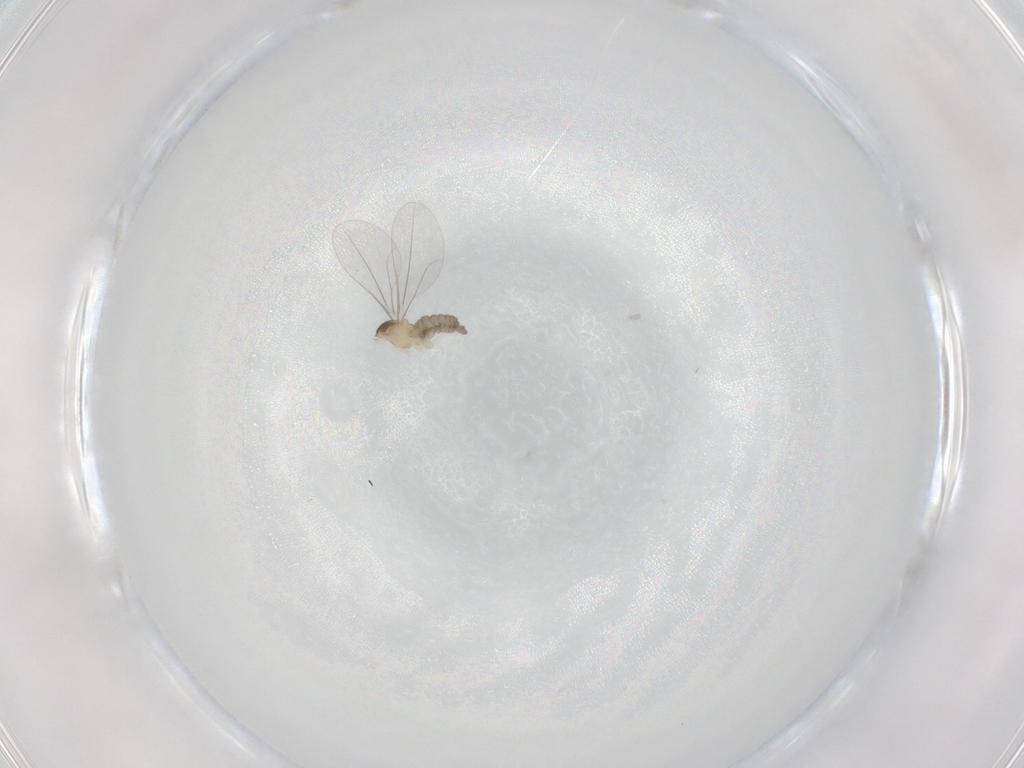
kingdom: Animalia
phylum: Arthropoda
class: Insecta
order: Diptera
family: Cecidomyiidae
